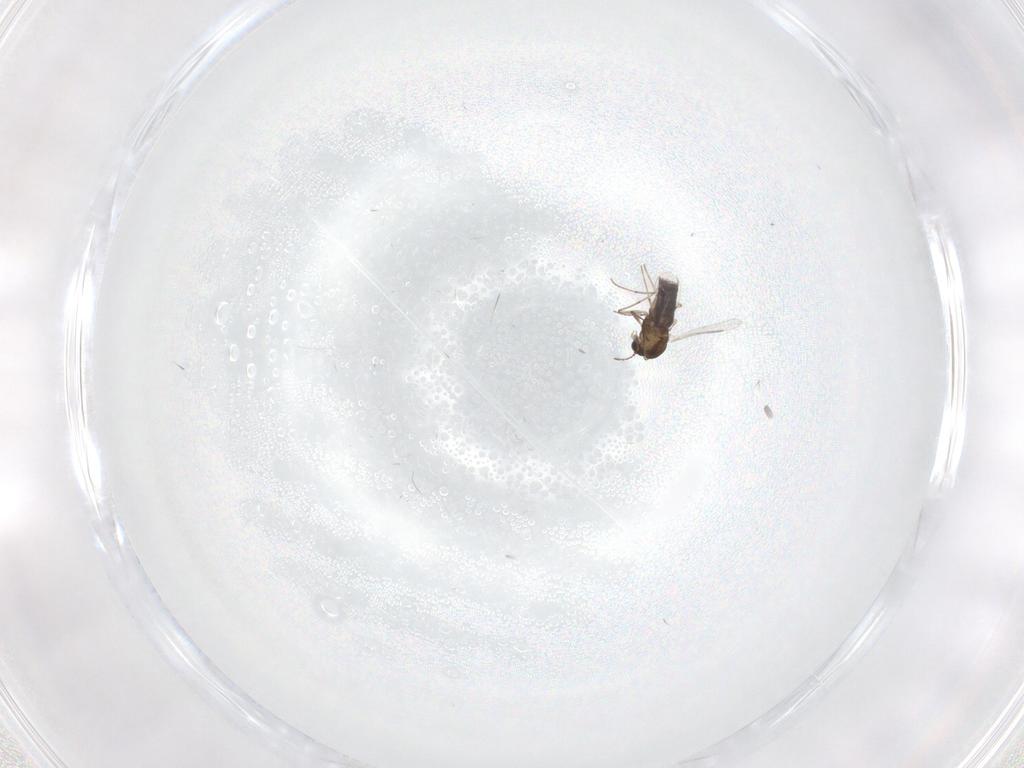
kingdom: Animalia
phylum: Arthropoda
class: Insecta
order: Diptera
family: Chironomidae
